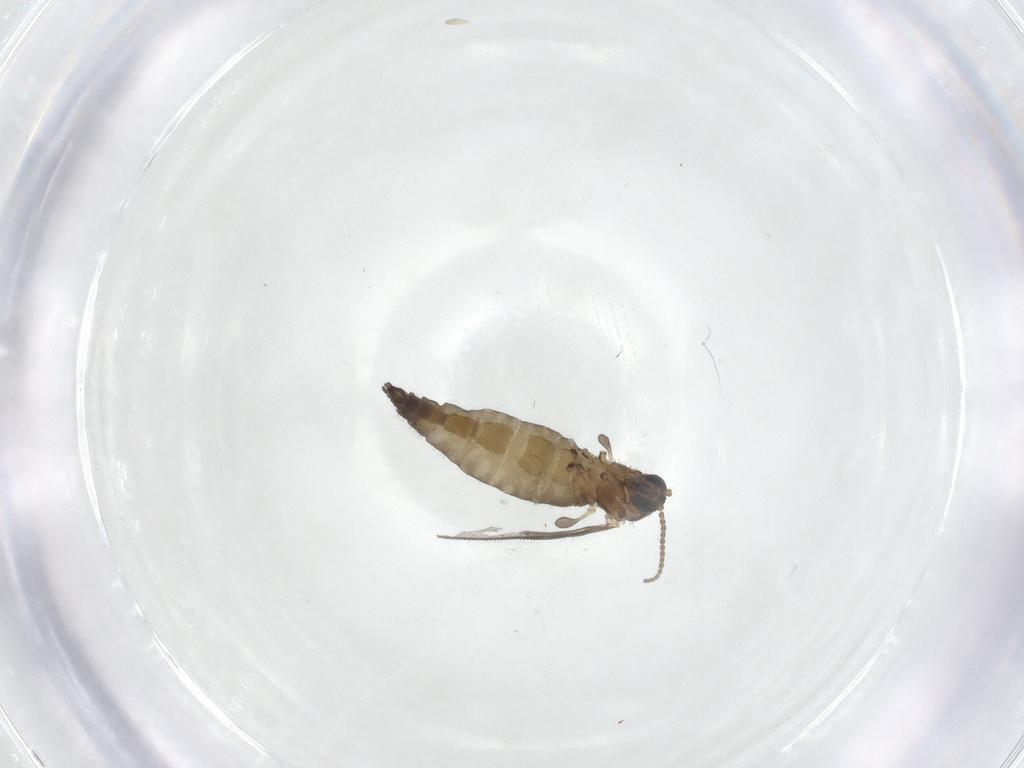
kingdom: Animalia
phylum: Arthropoda
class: Insecta
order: Diptera
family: Sciaridae
